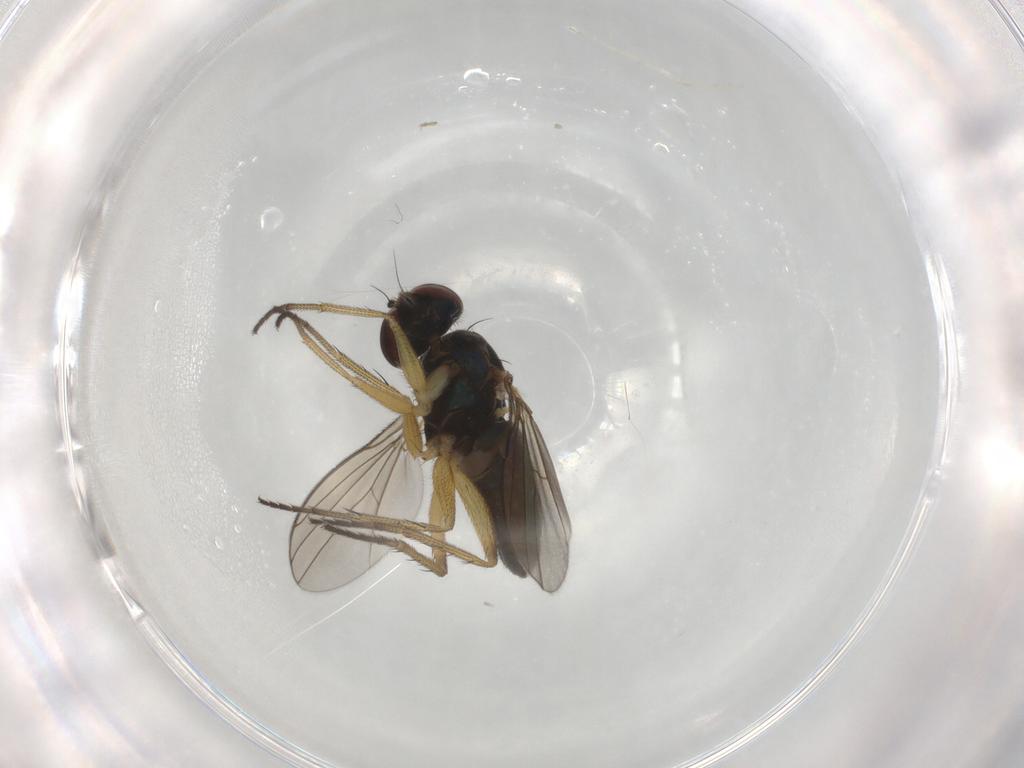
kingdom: Animalia
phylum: Arthropoda
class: Insecta
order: Diptera
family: Dolichopodidae
